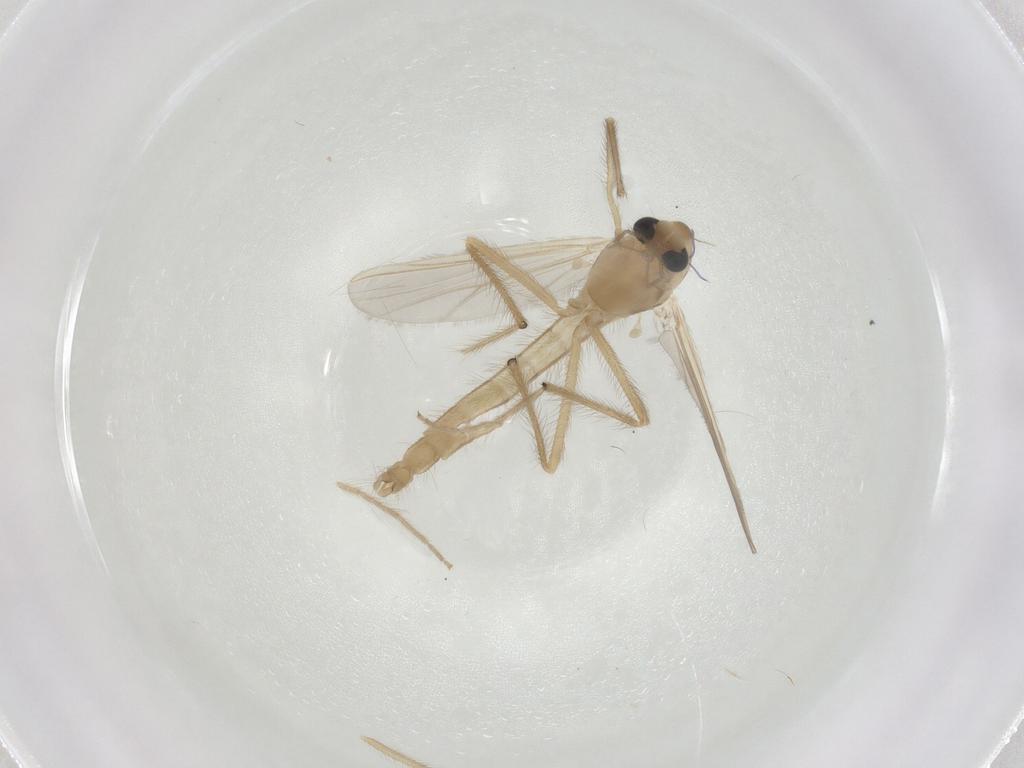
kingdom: Animalia
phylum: Arthropoda
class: Insecta
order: Diptera
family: Chironomidae
